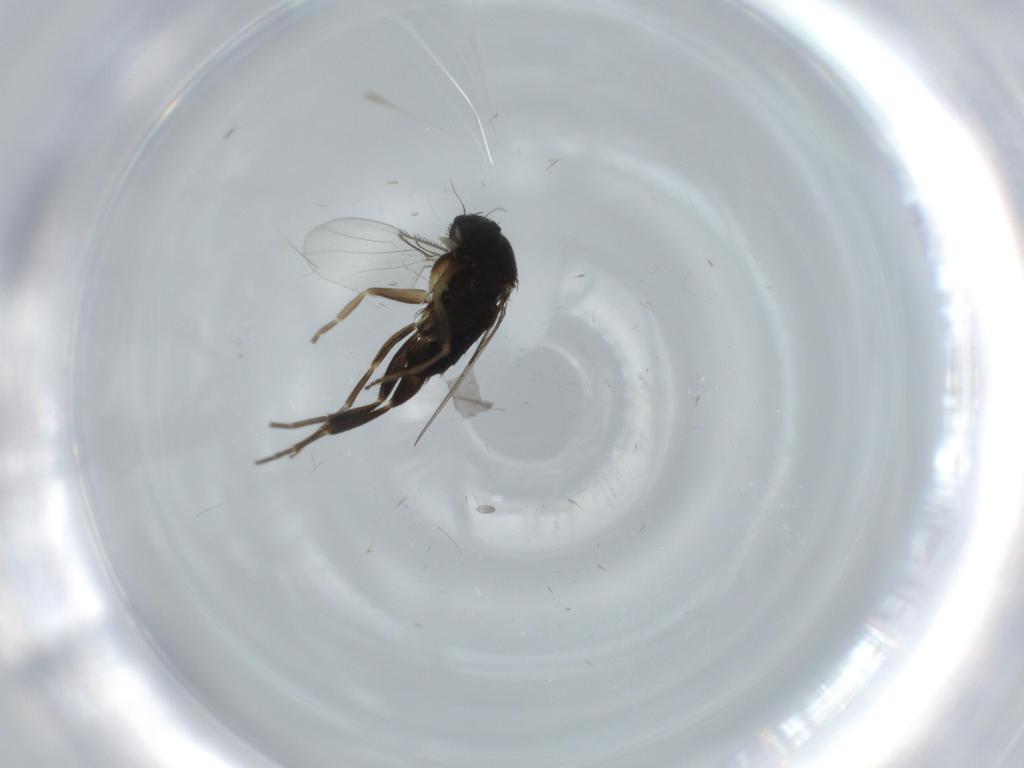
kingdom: Animalia
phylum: Arthropoda
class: Insecta
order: Diptera
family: Phoridae
